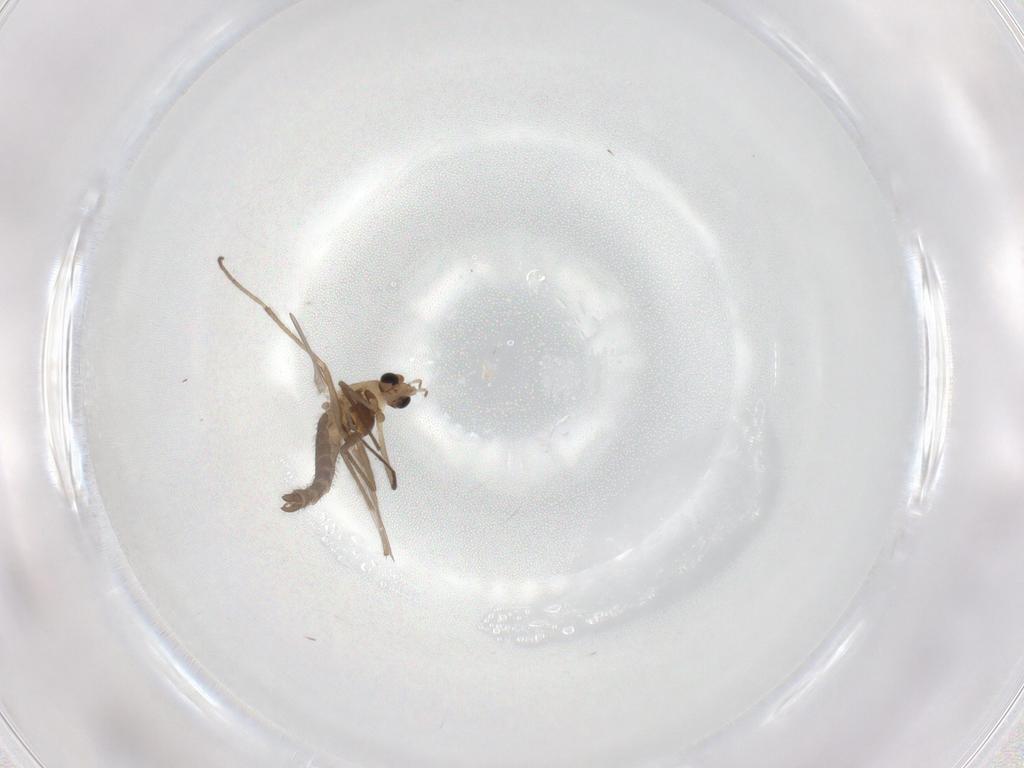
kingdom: Animalia
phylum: Arthropoda
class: Insecta
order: Diptera
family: Chironomidae
